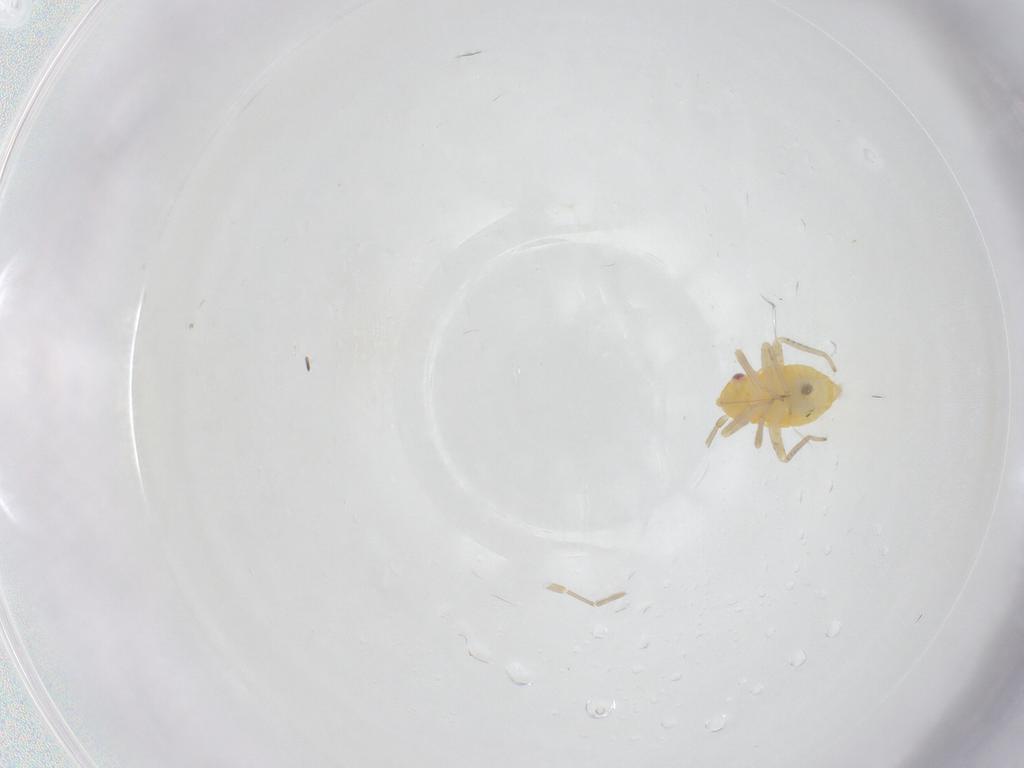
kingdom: Animalia
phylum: Arthropoda
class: Insecta
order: Hemiptera
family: Miridae
